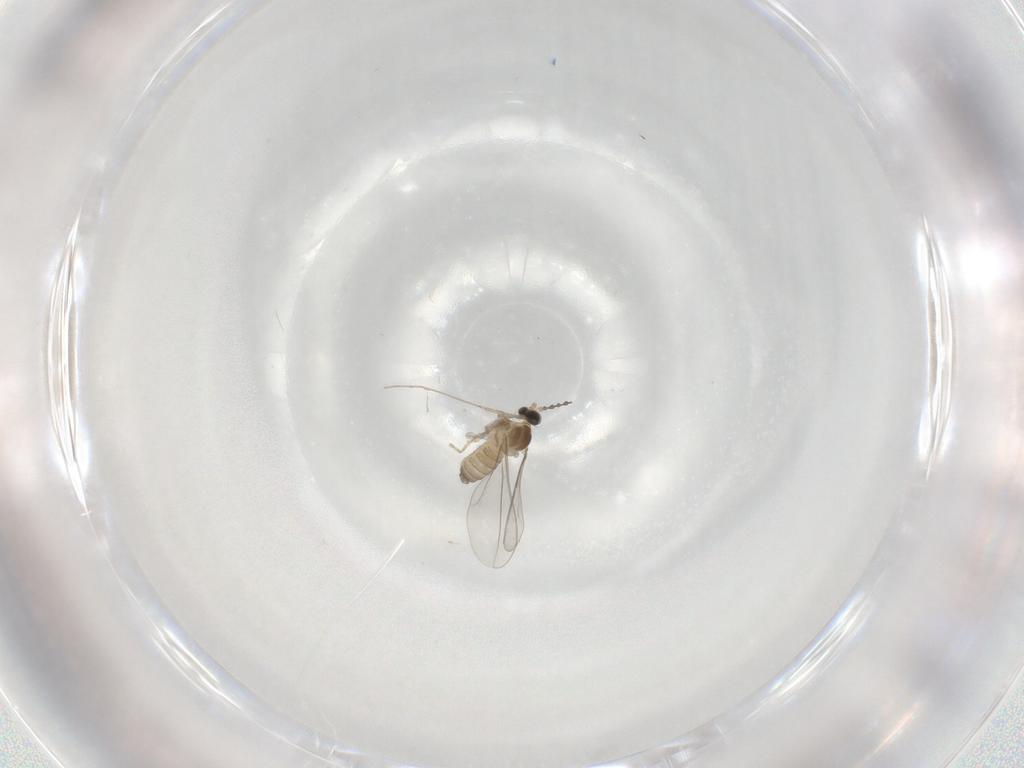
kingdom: Animalia
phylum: Arthropoda
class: Insecta
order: Diptera
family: Cecidomyiidae
